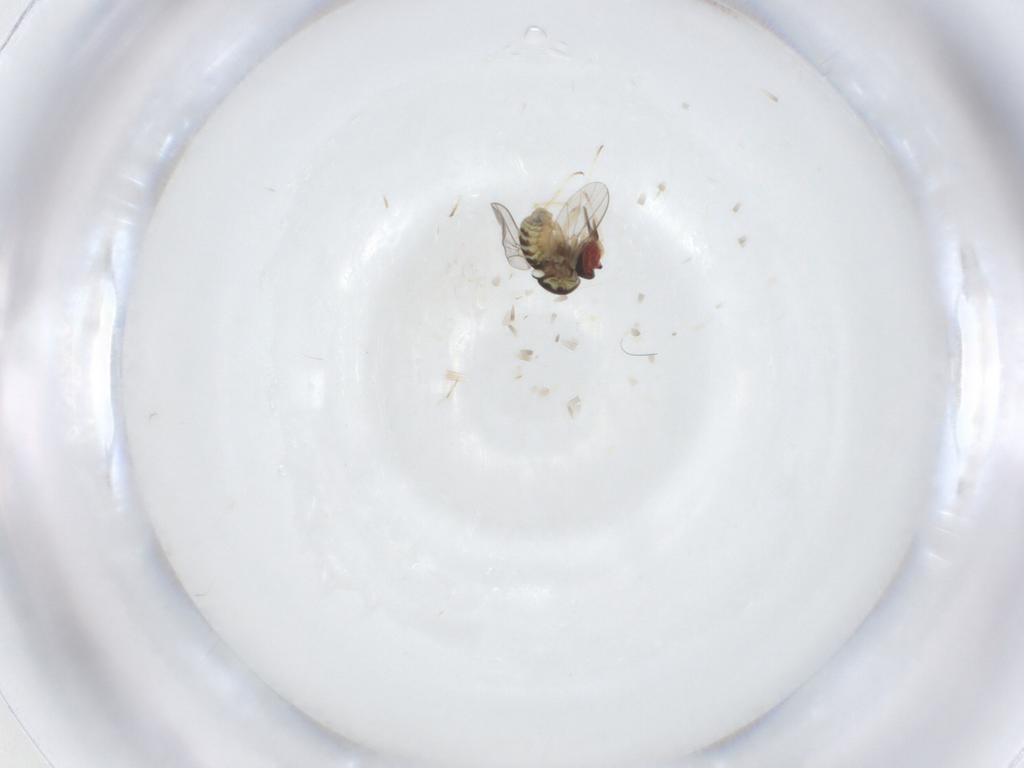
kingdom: Animalia
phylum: Arthropoda
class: Insecta
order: Diptera
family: Mythicomyiidae
